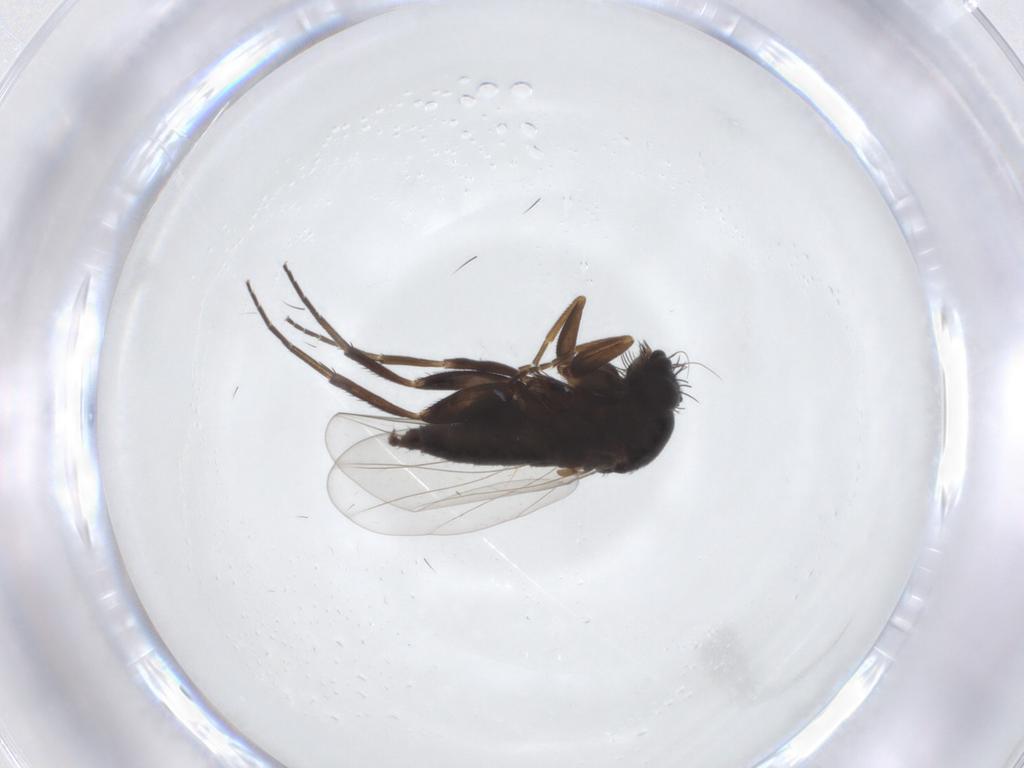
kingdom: Animalia
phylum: Arthropoda
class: Insecta
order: Diptera
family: Phoridae
